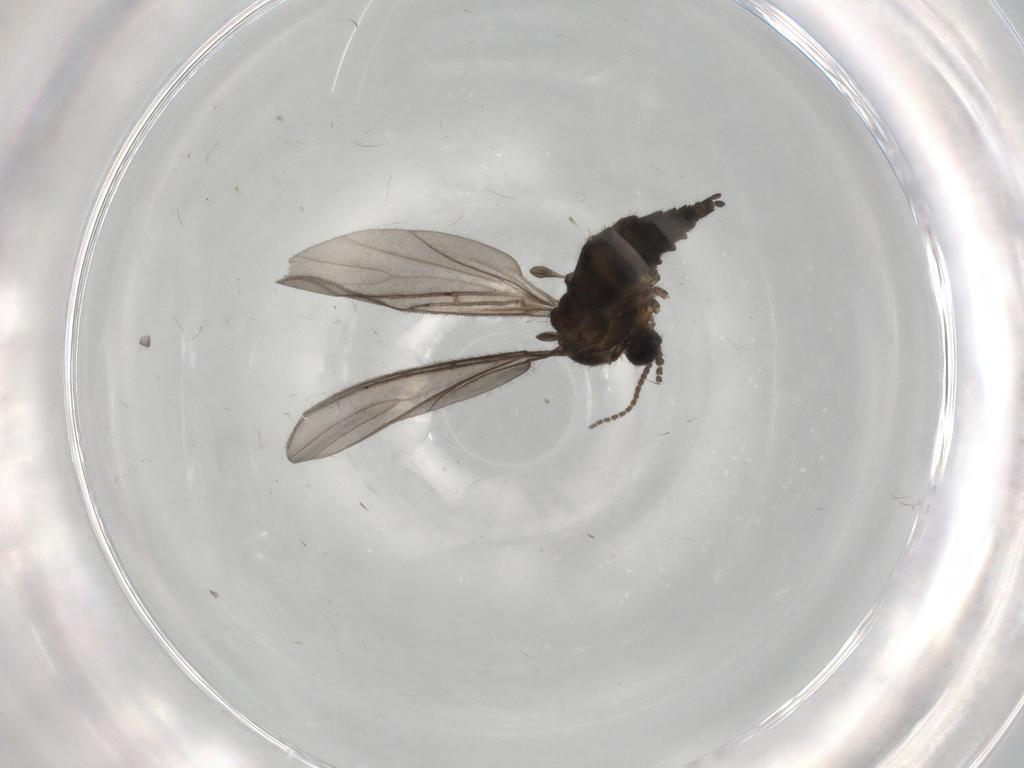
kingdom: Animalia
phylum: Arthropoda
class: Insecta
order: Diptera
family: Sciaridae
